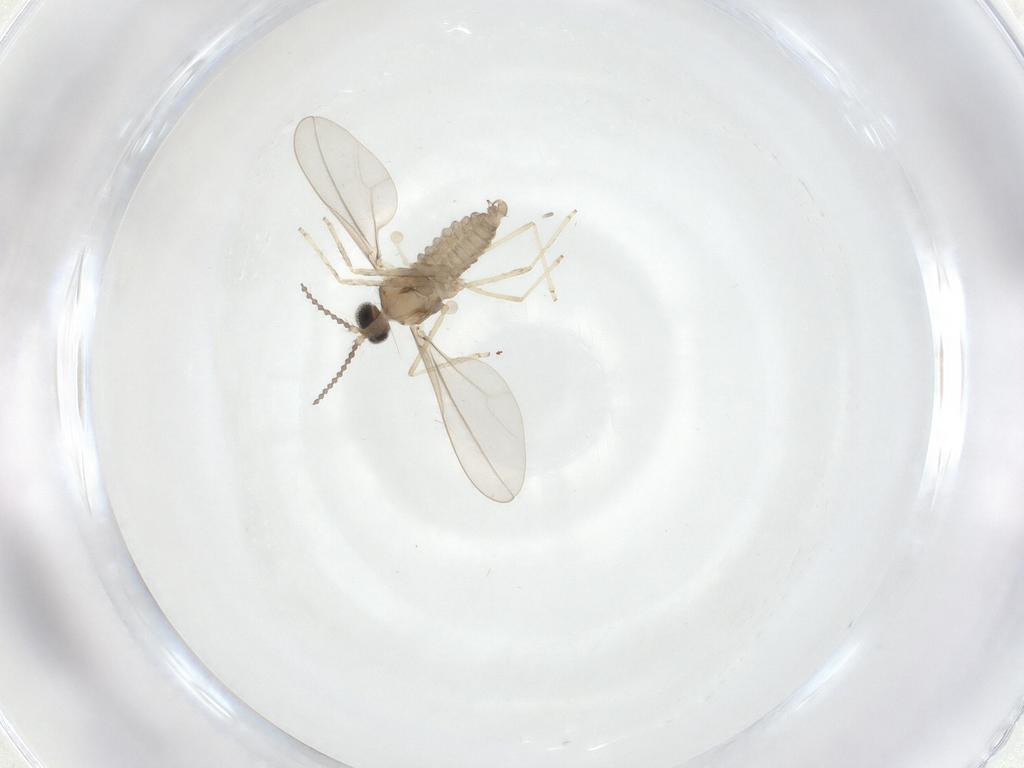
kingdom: Animalia
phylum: Arthropoda
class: Insecta
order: Diptera
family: Cecidomyiidae
